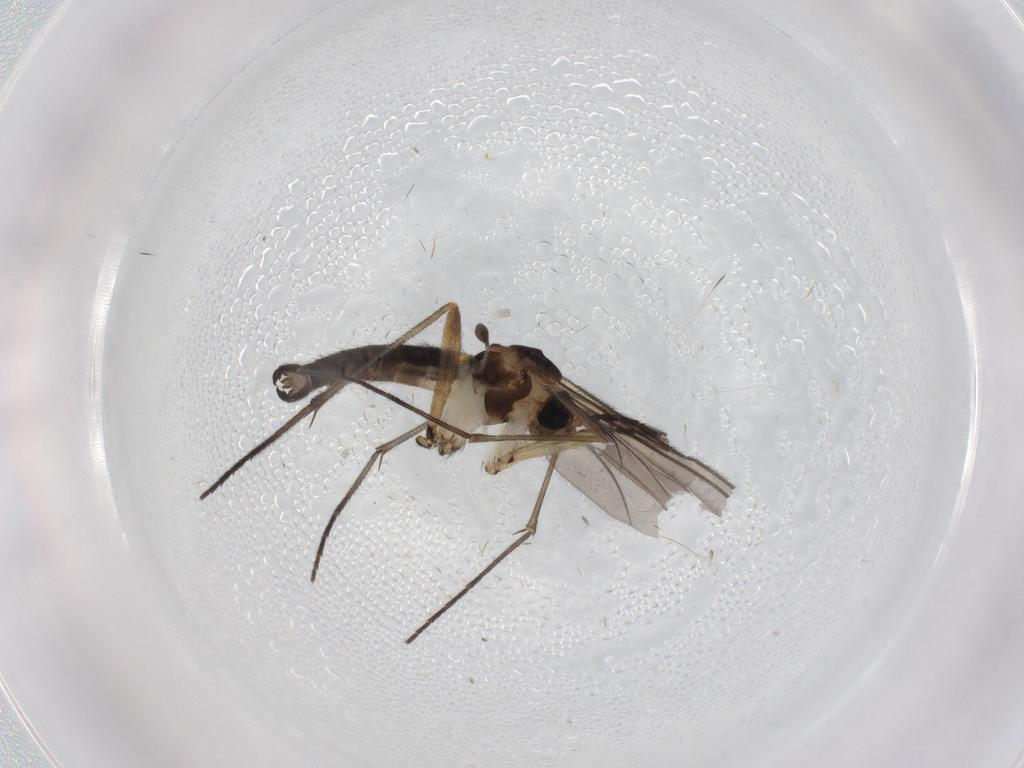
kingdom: Animalia
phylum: Arthropoda
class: Insecta
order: Diptera
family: Sciaridae
